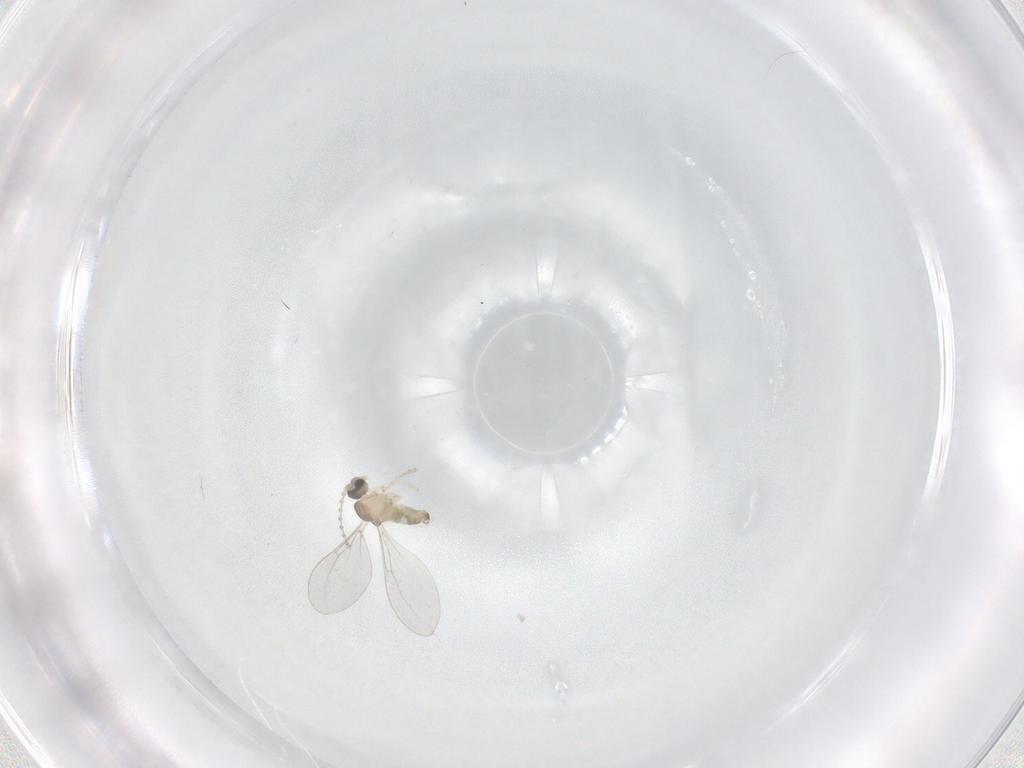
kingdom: Animalia
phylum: Arthropoda
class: Insecta
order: Diptera
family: Cecidomyiidae
